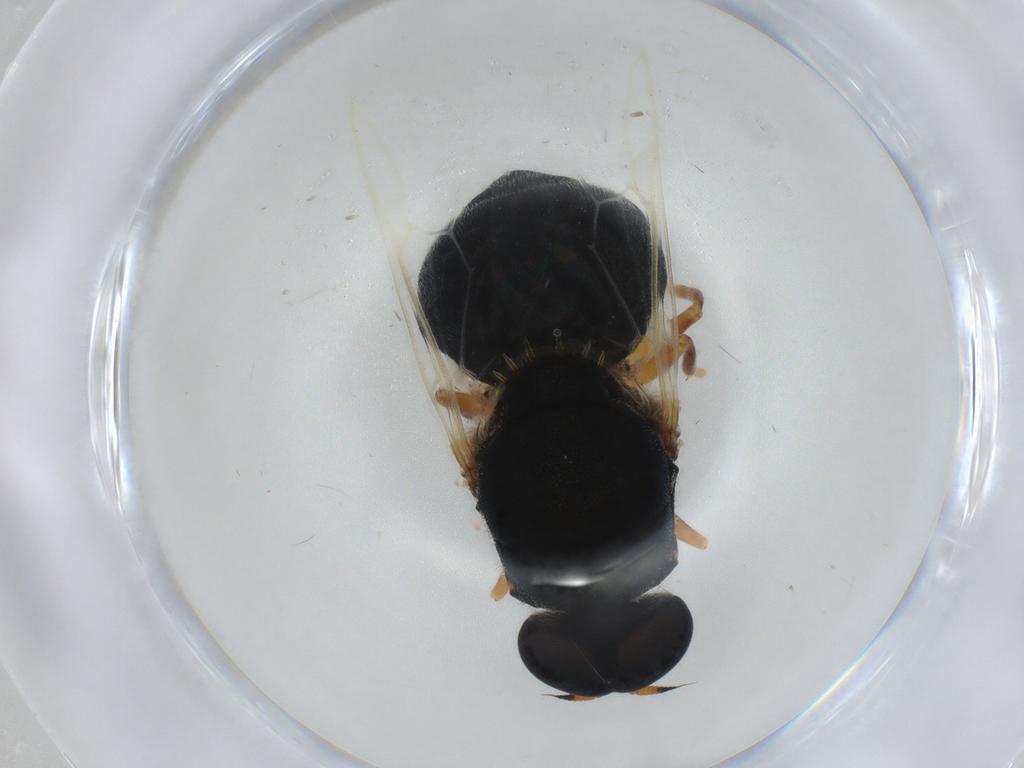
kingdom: Animalia
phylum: Arthropoda
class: Insecta
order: Diptera
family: Stratiomyidae
